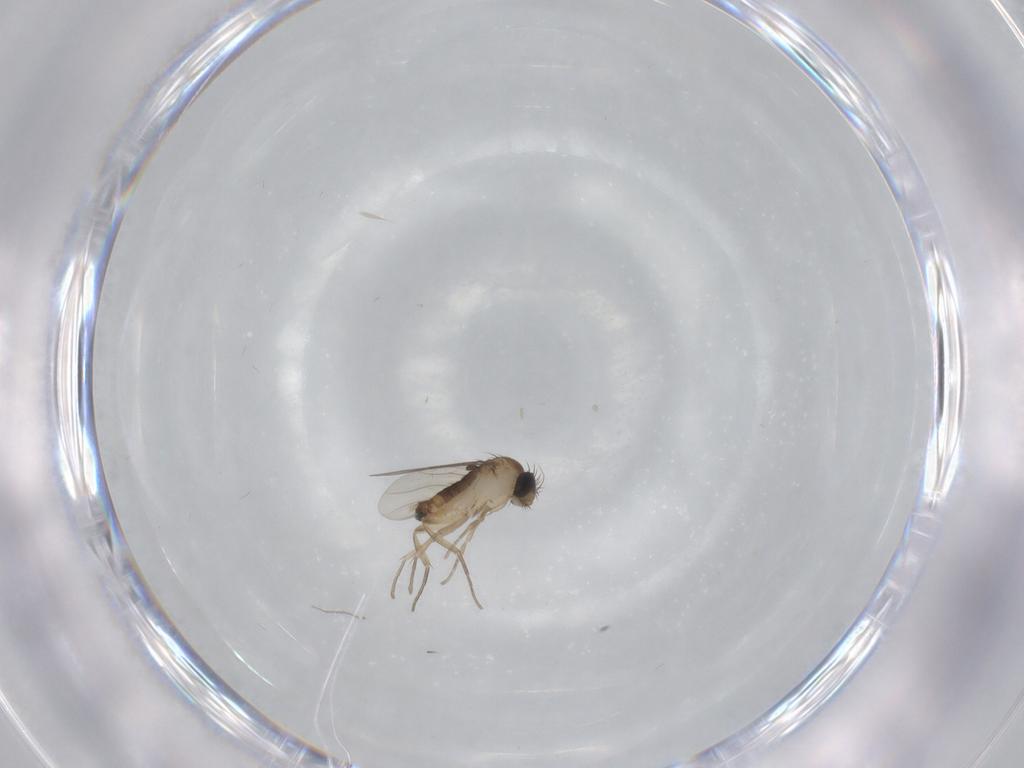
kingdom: Animalia
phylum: Arthropoda
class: Insecta
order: Diptera
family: Phoridae
